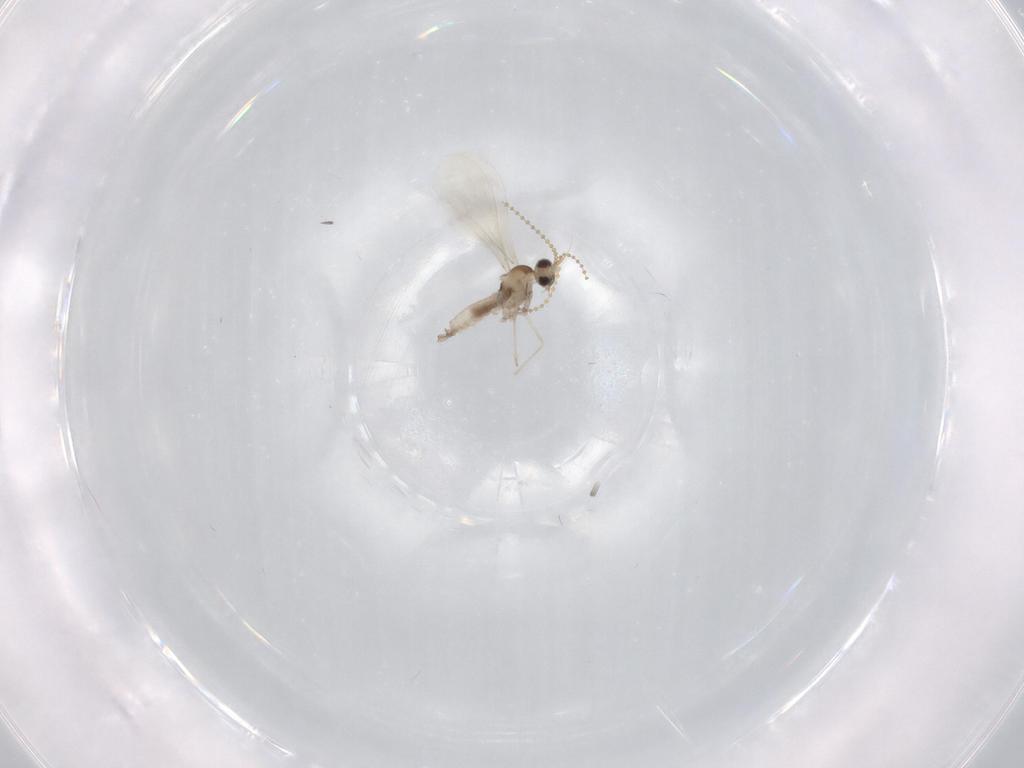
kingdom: Animalia
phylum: Arthropoda
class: Insecta
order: Diptera
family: Cecidomyiidae
